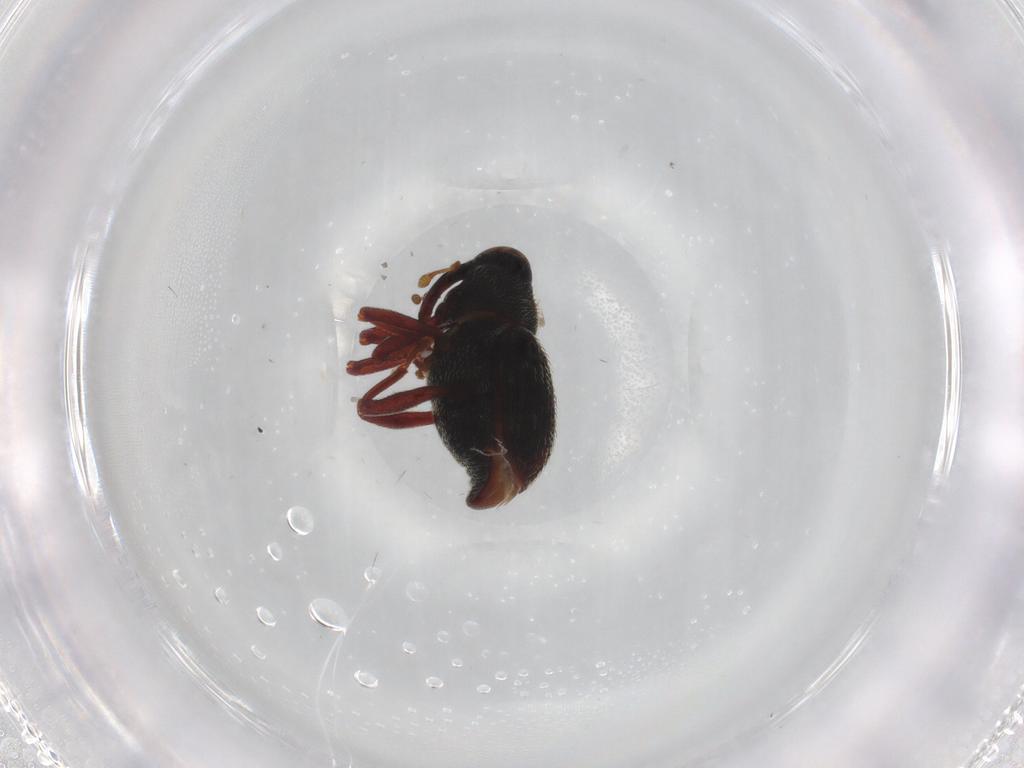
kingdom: Animalia
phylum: Arthropoda
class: Insecta
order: Coleoptera
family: Curculionidae
